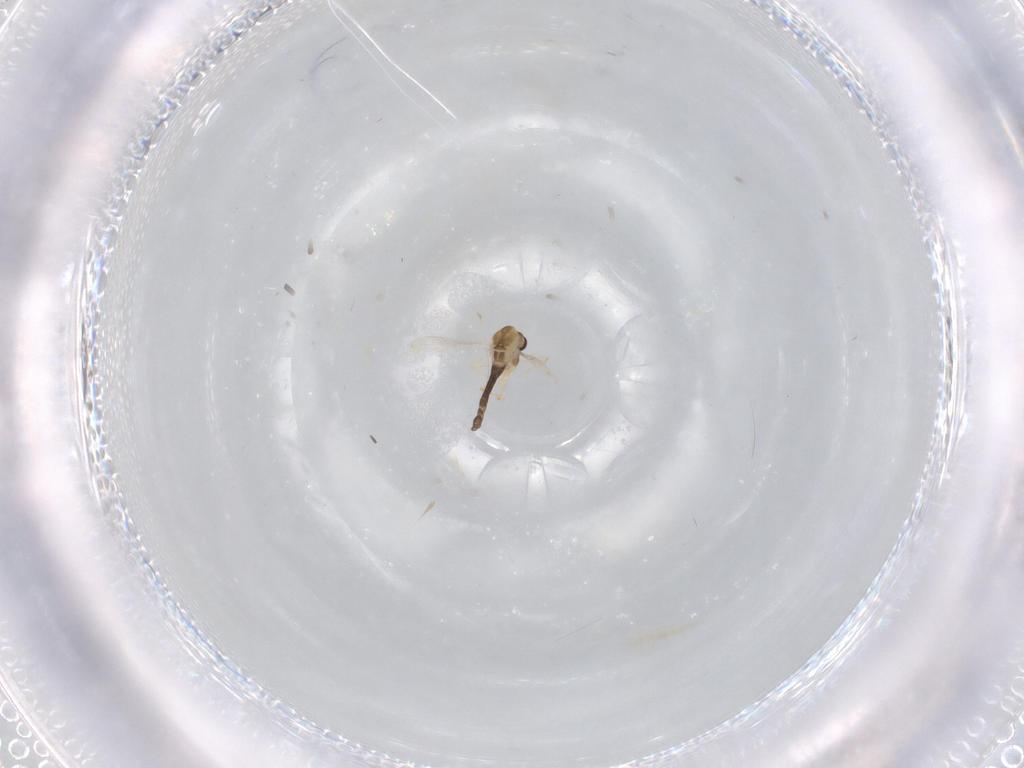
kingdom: Animalia
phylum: Arthropoda
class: Insecta
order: Diptera
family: Chironomidae
